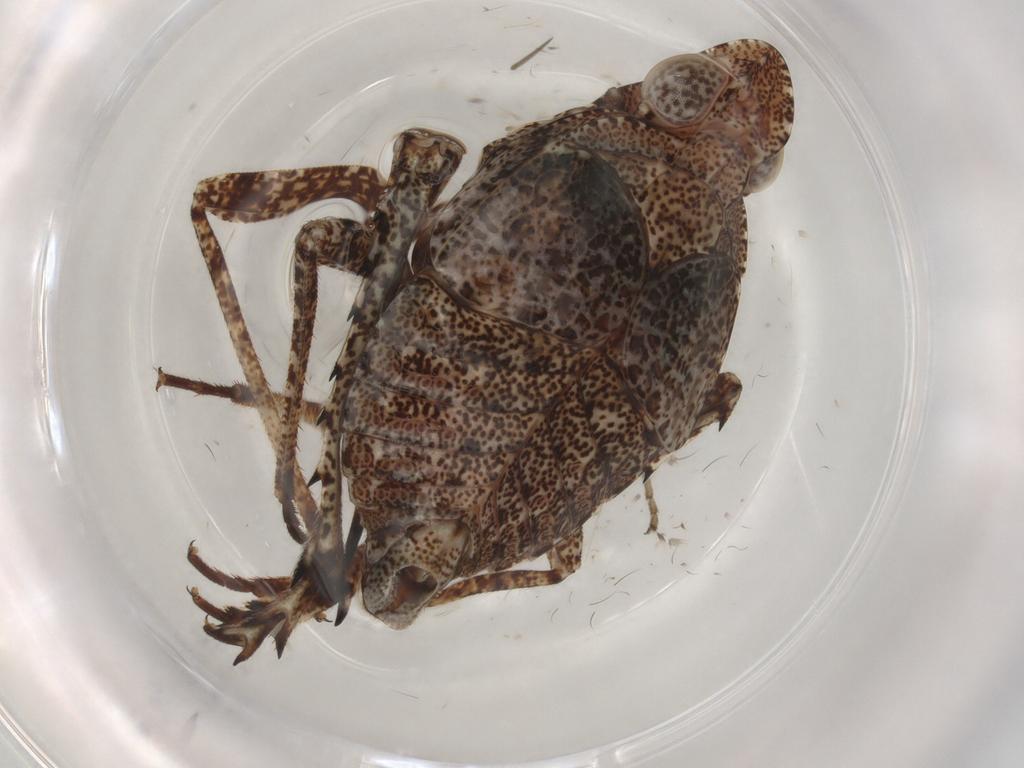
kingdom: Animalia
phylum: Arthropoda
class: Insecta
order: Hemiptera
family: Dictyopharidae
